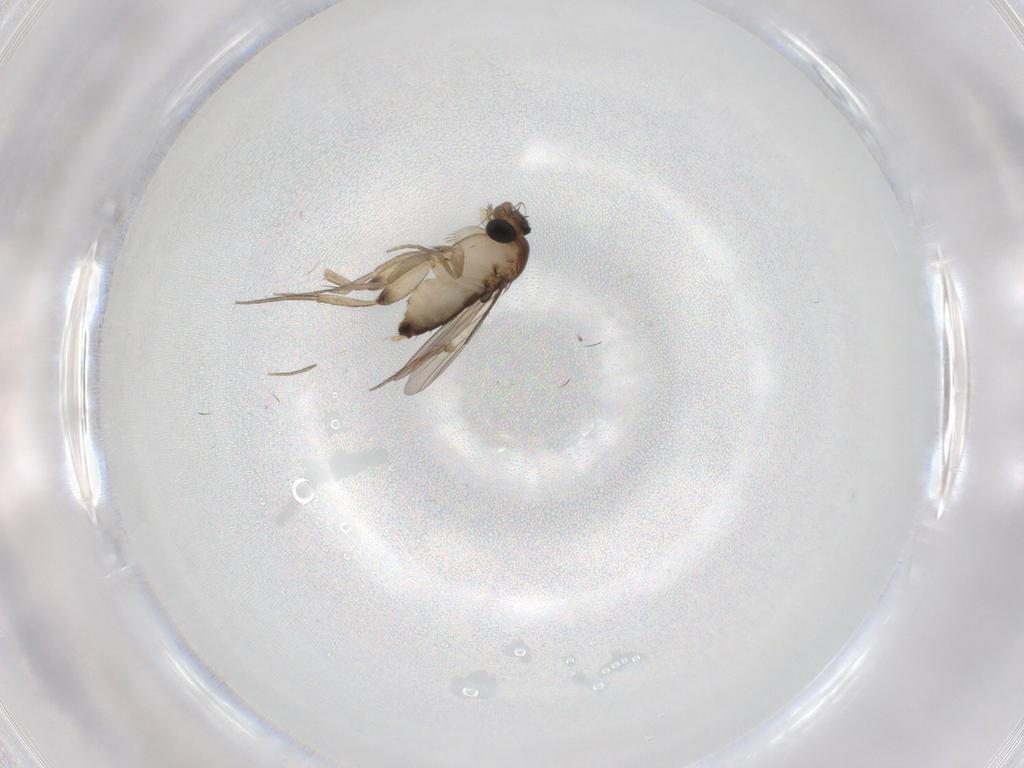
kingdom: Animalia
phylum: Arthropoda
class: Insecta
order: Diptera
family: Phoridae
